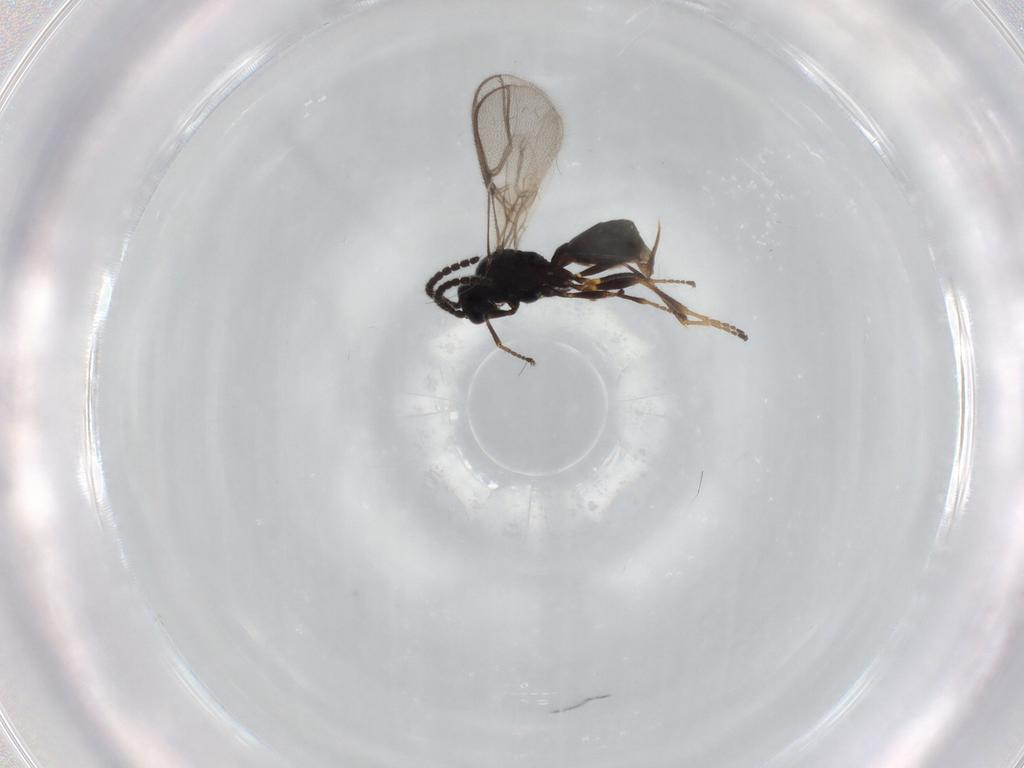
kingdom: Animalia
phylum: Arthropoda
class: Insecta
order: Hymenoptera
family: Braconidae
